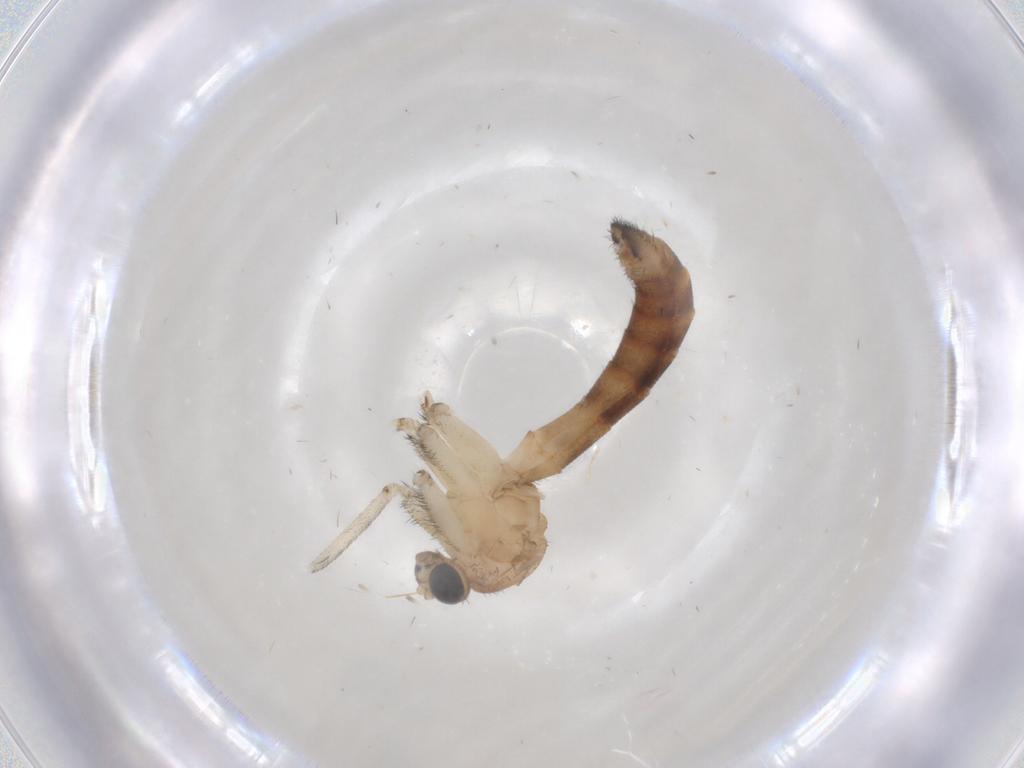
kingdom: Animalia
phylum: Arthropoda
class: Insecta
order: Diptera
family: Keroplatidae
